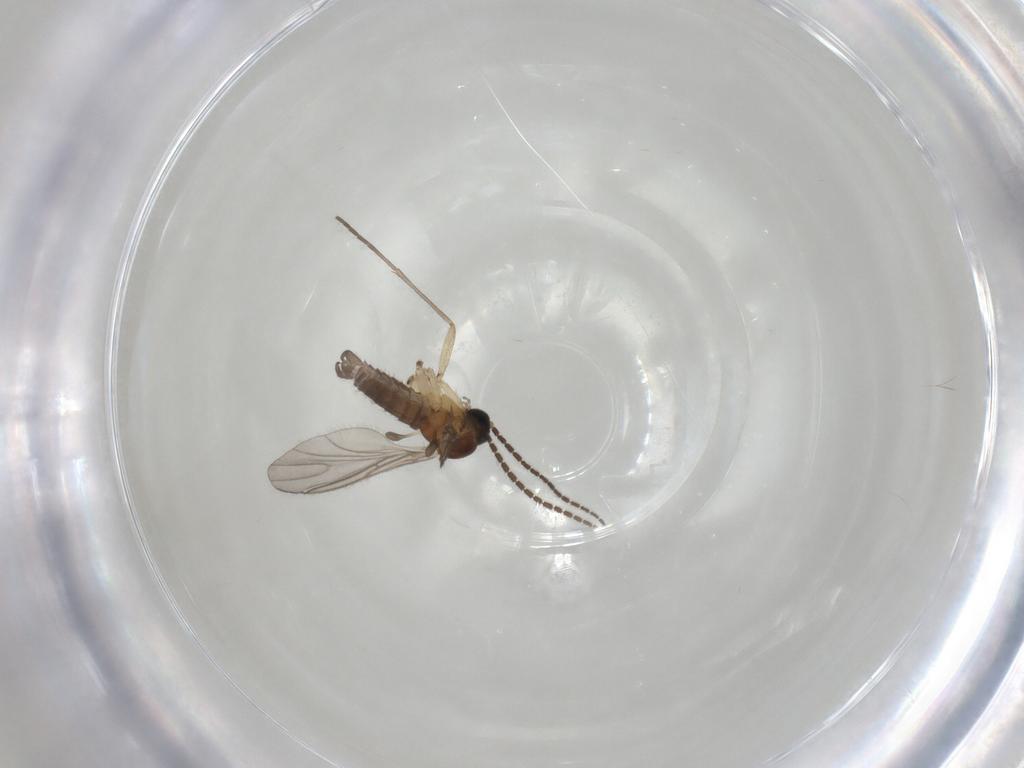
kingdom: Animalia
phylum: Arthropoda
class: Insecta
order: Diptera
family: Sciaridae
